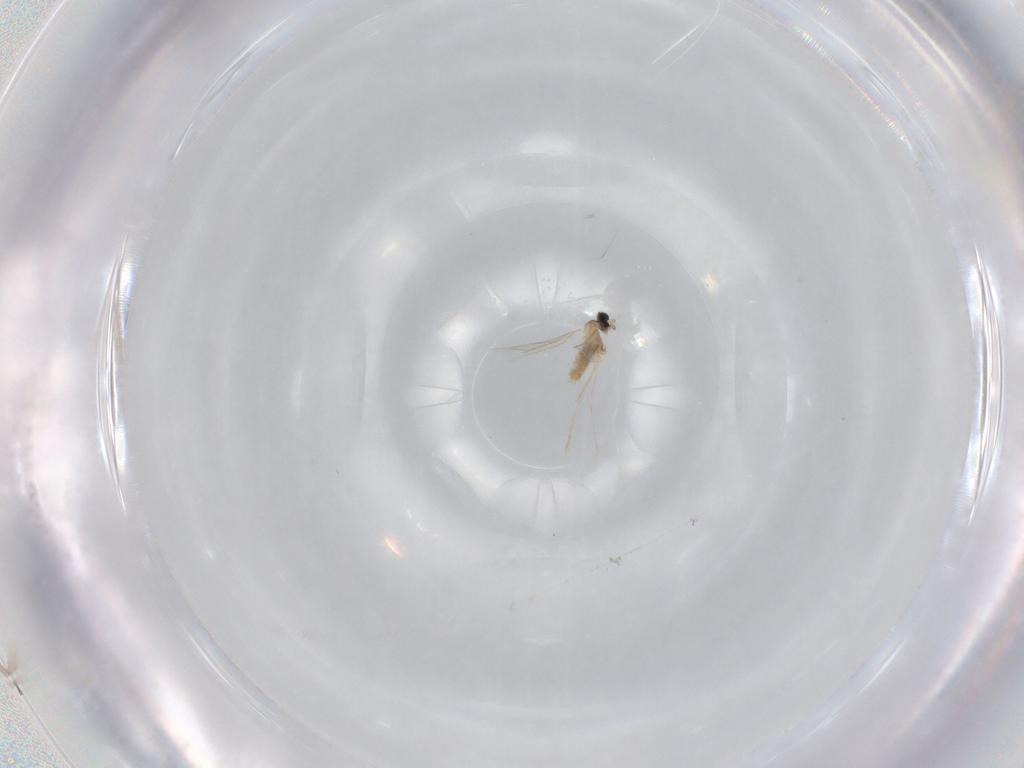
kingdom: Animalia
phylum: Arthropoda
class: Insecta
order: Diptera
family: Cecidomyiidae
